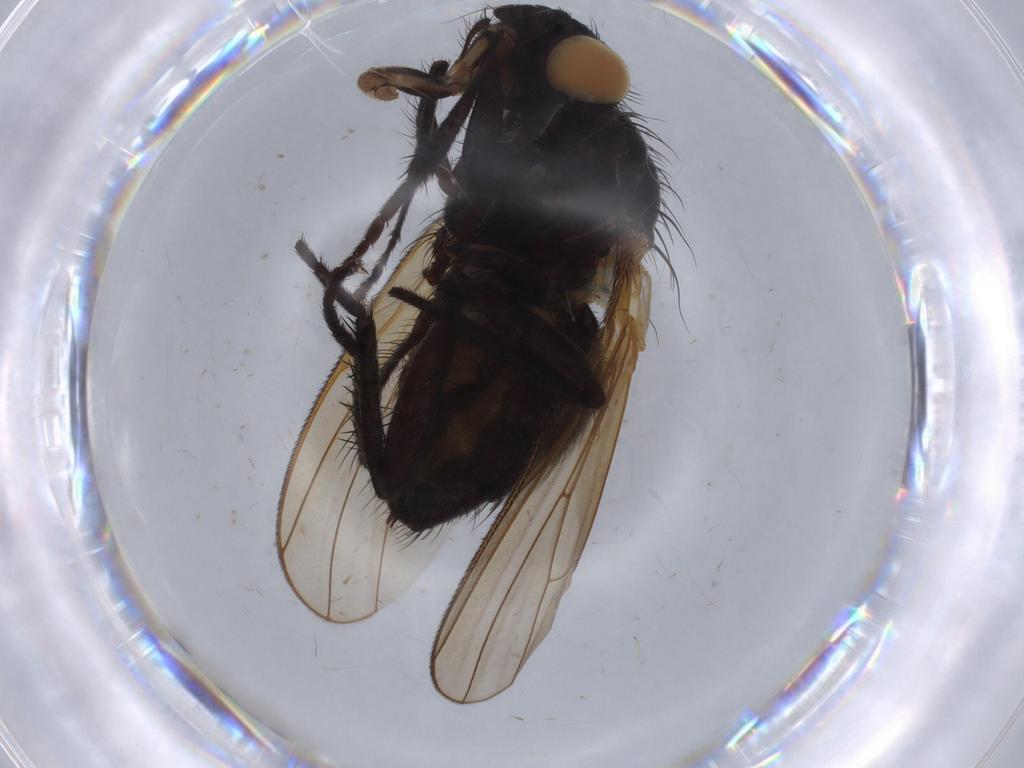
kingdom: Animalia
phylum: Arthropoda
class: Insecta
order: Diptera
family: Anthomyiidae
